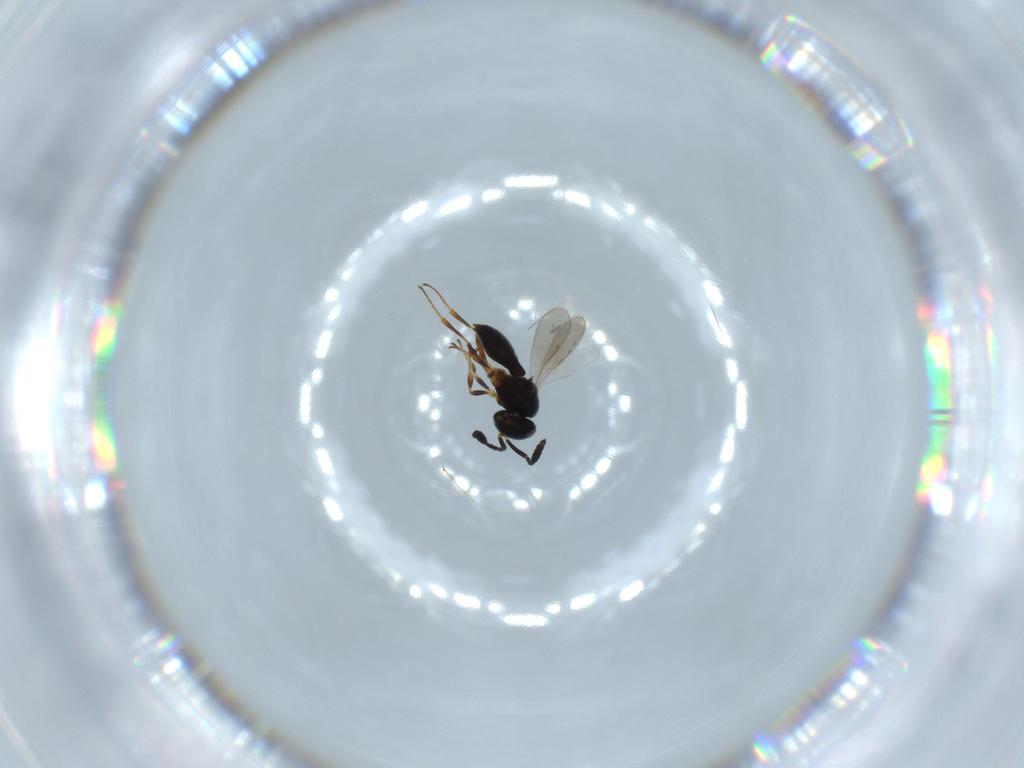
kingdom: Animalia
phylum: Arthropoda
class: Insecta
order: Hymenoptera
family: Scelionidae
